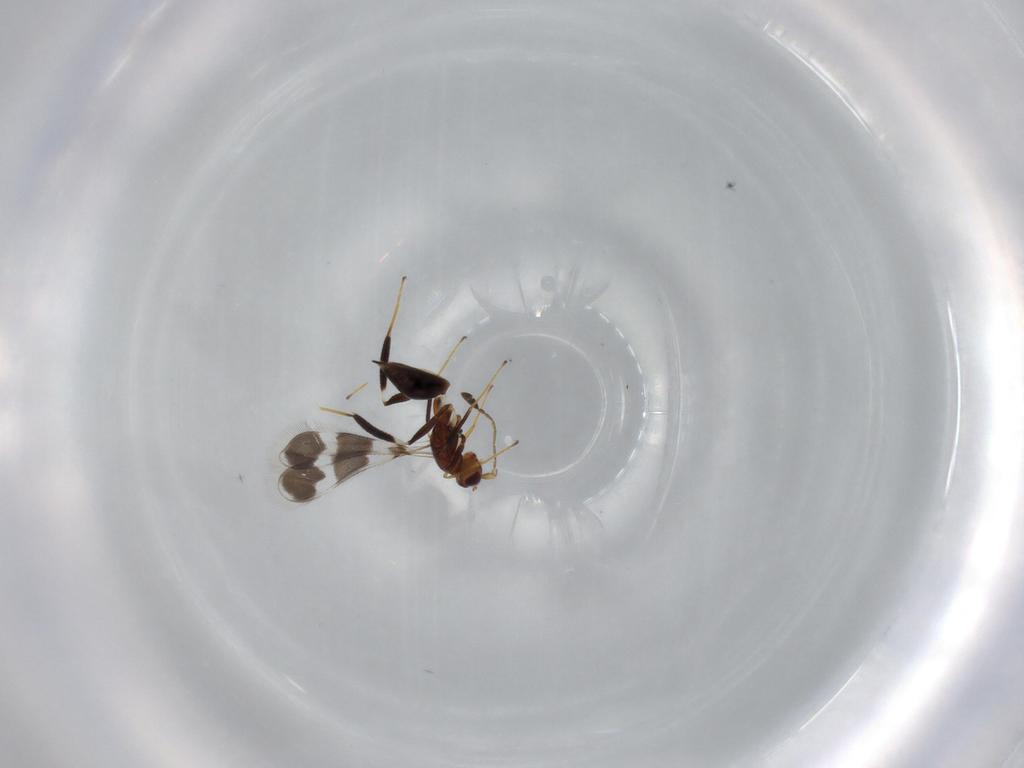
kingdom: Animalia
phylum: Arthropoda
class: Insecta
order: Hymenoptera
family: Mymaridae
